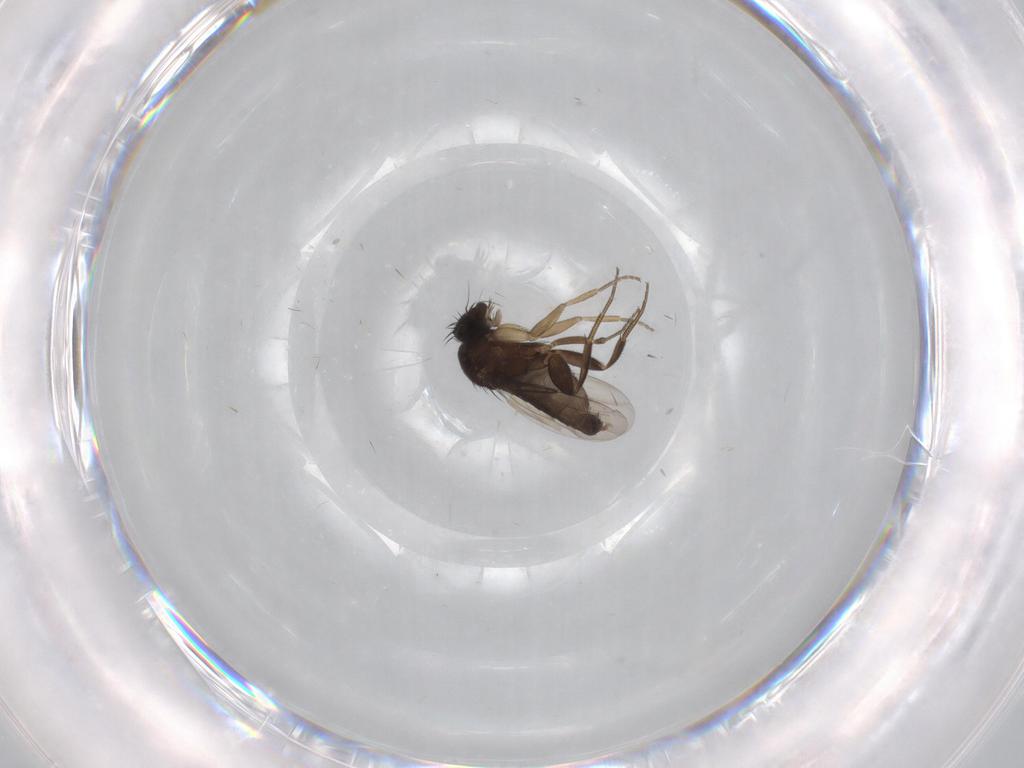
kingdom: Animalia
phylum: Arthropoda
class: Insecta
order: Diptera
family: Phoridae
